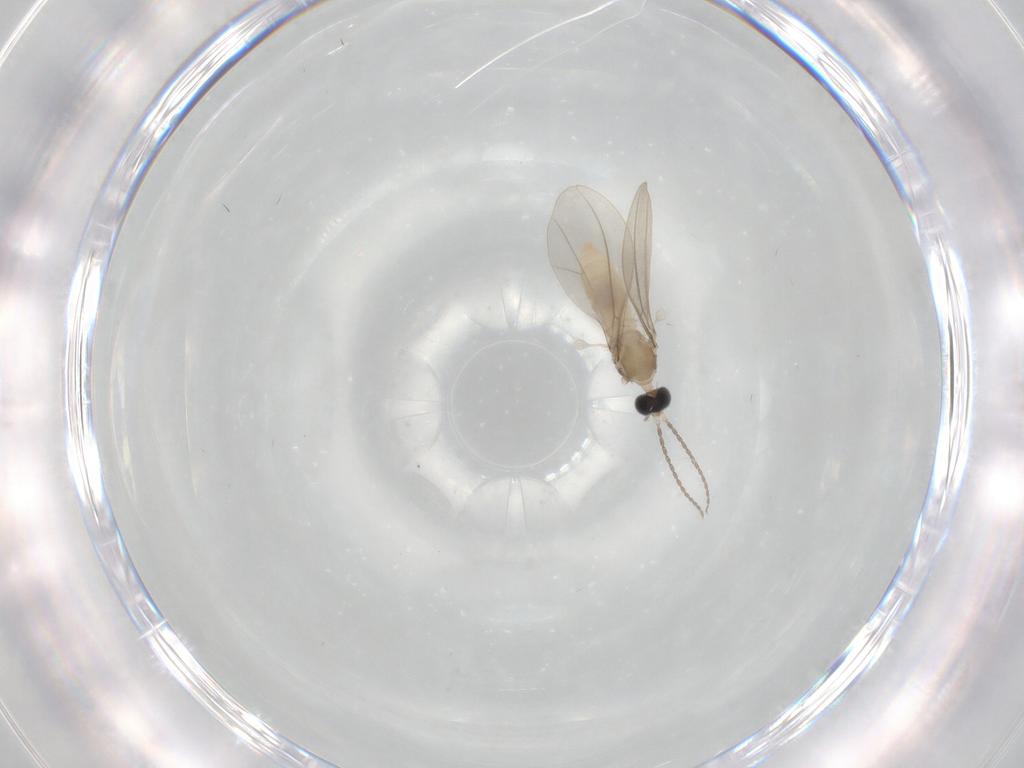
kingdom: Animalia
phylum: Arthropoda
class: Insecta
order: Diptera
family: Cecidomyiidae
